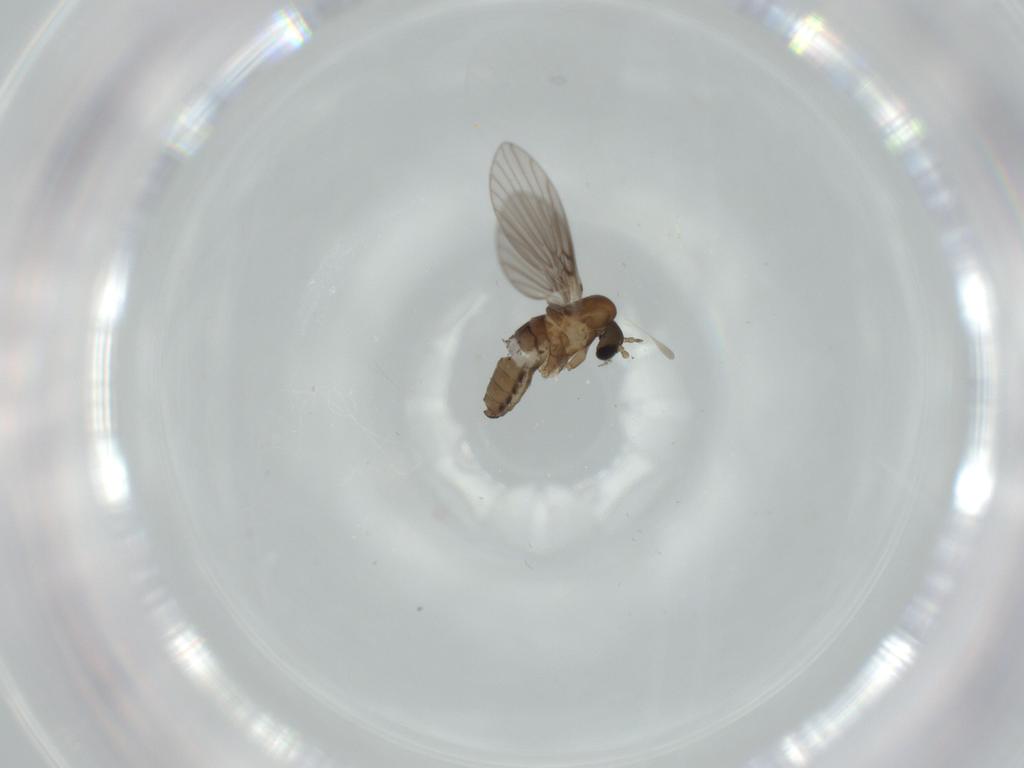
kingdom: Animalia
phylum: Arthropoda
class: Insecta
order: Diptera
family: Psychodidae
